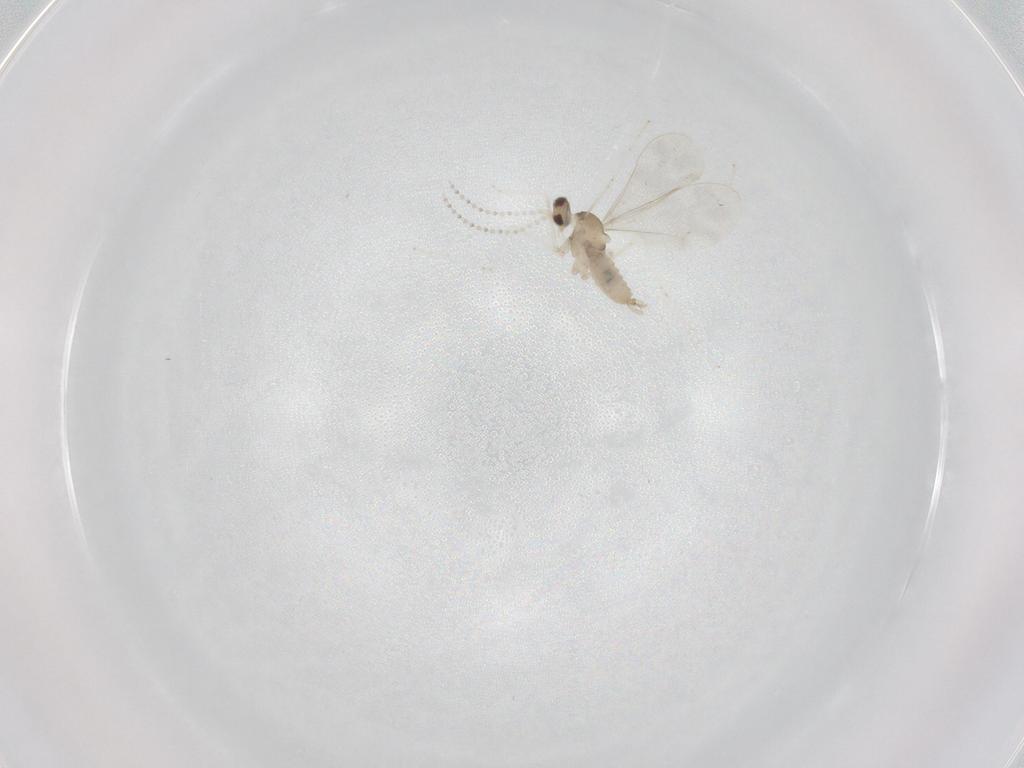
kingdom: Animalia
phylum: Arthropoda
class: Insecta
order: Diptera
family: Cecidomyiidae
